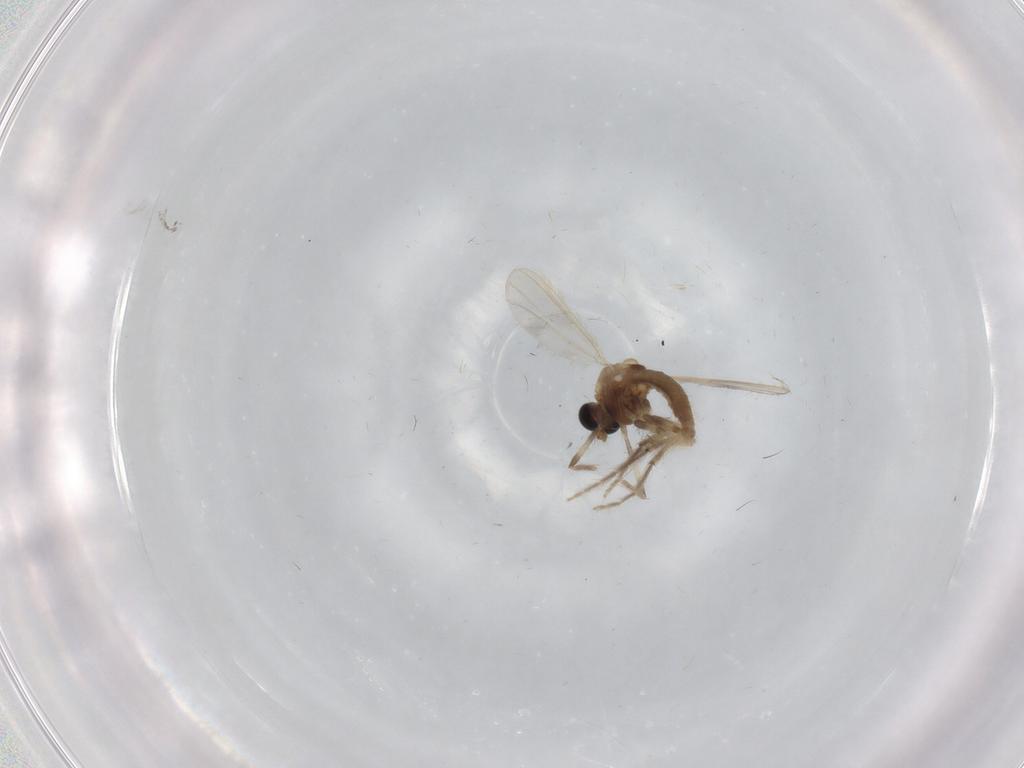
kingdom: Animalia
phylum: Arthropoda
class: Insecta
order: Diptera
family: Chironomidae
